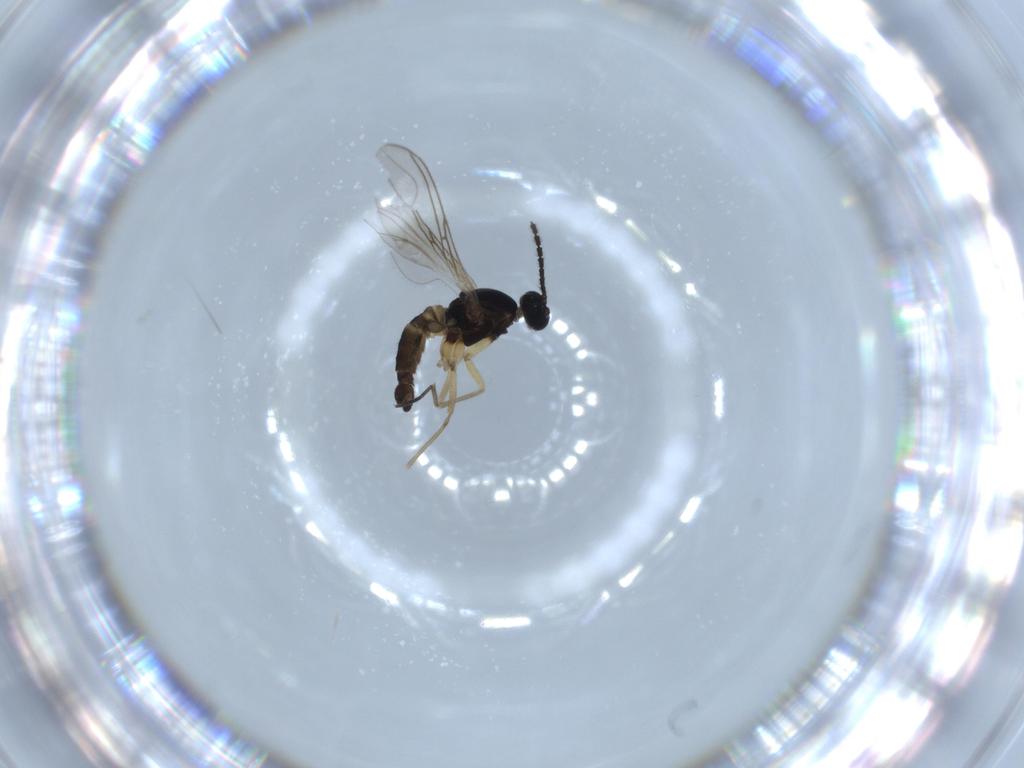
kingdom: Animalia
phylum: Arthropoda
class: Insecta
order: Diptera
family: Sciaridae
